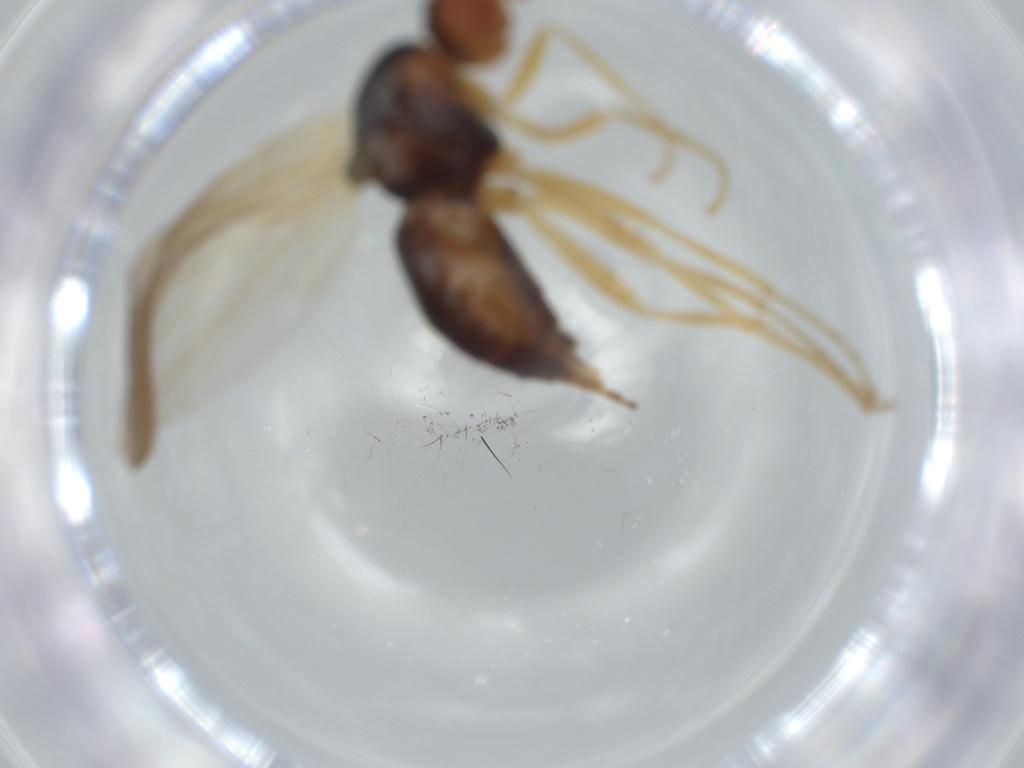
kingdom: Animalia
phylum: Arthropoda
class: Insecta
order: Diptera
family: Psilidae
